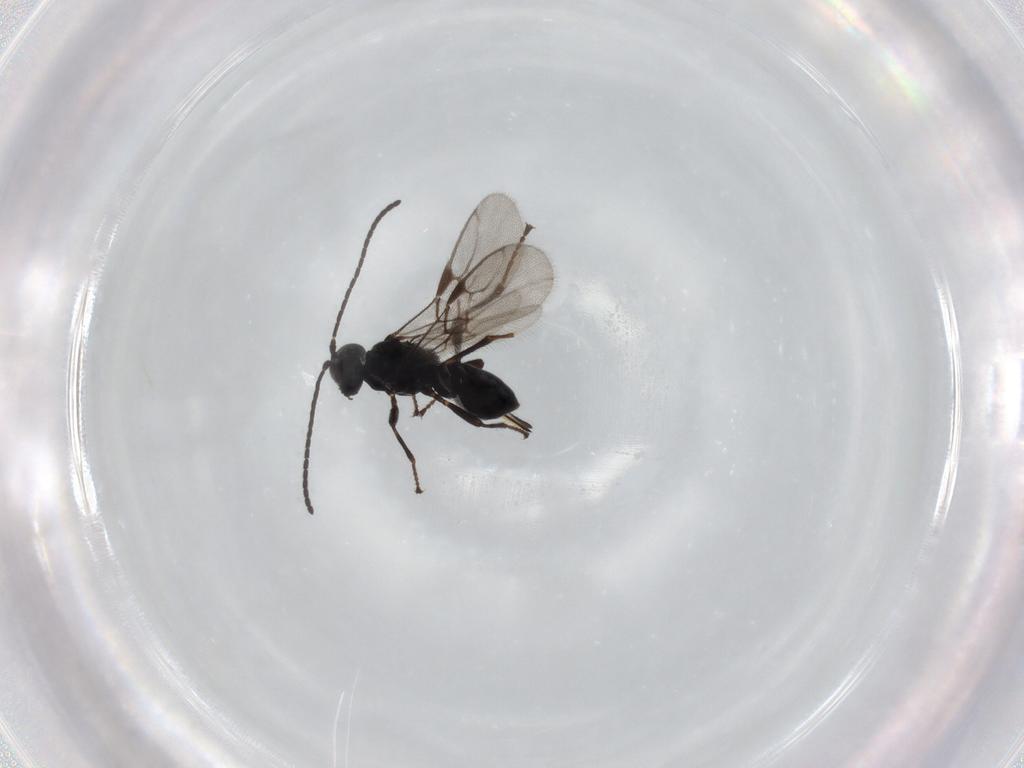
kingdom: Animalia
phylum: Arthropoda
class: Insecta
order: Hymenoptera
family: Braconidae
